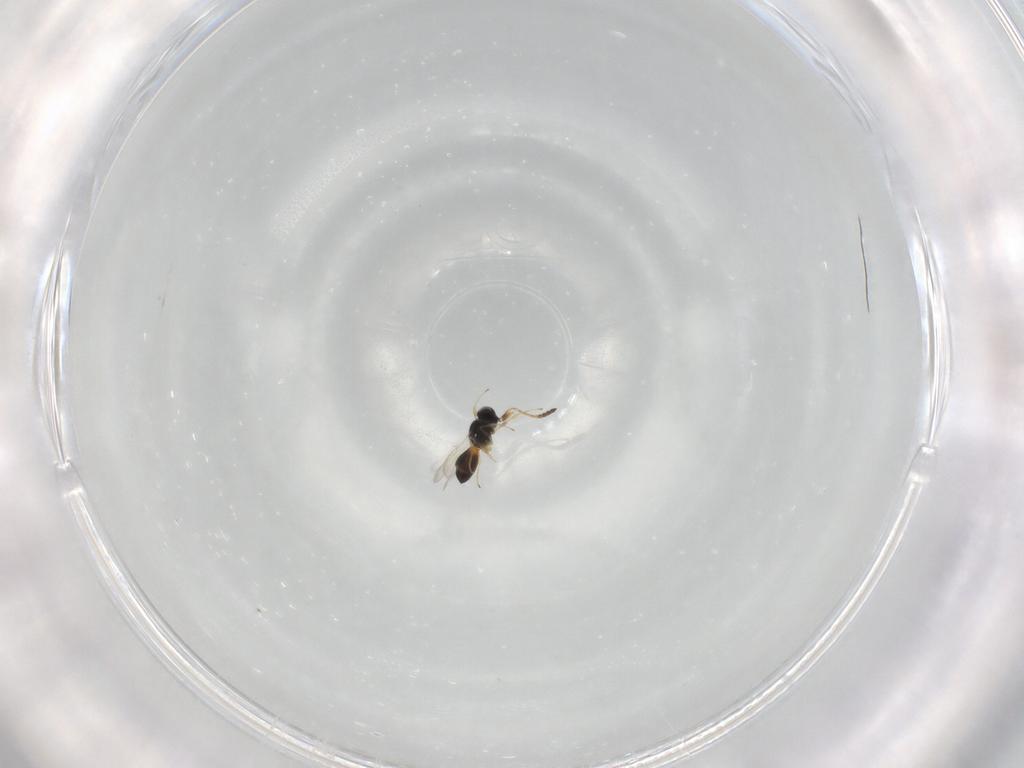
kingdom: Animalia
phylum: Arthropoda
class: Insecta
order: Hymenoptera
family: Scelionidae
